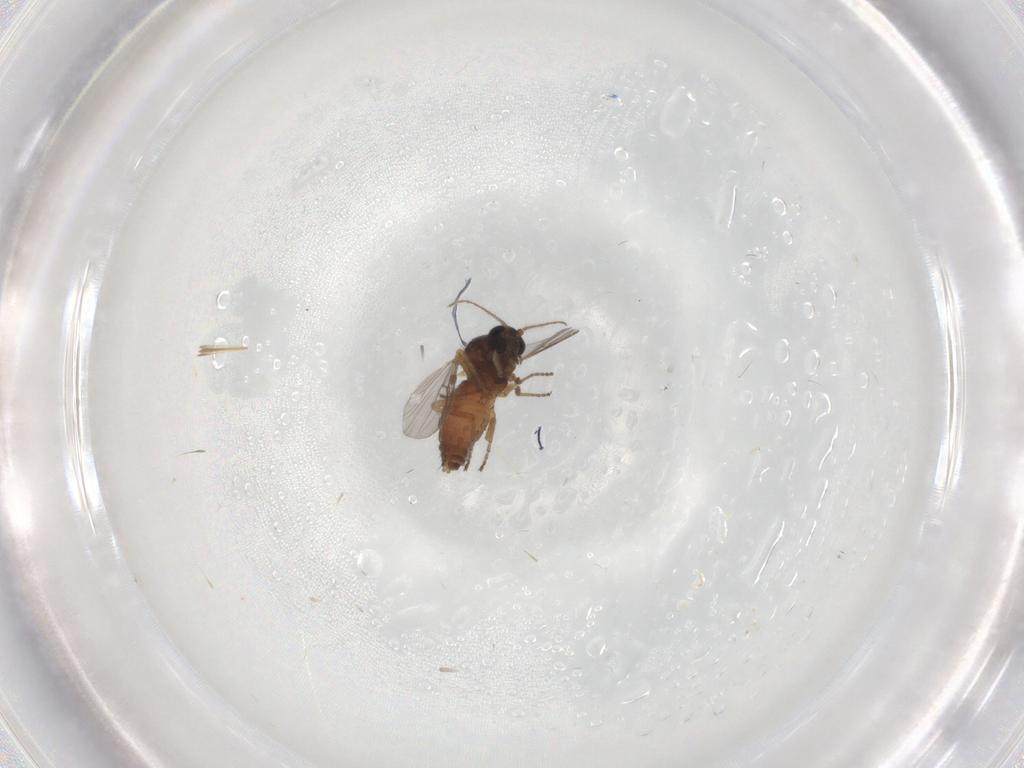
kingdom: Animalia
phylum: Arthropoda
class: Insecta
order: Diptera
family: Ceratopogonidae
